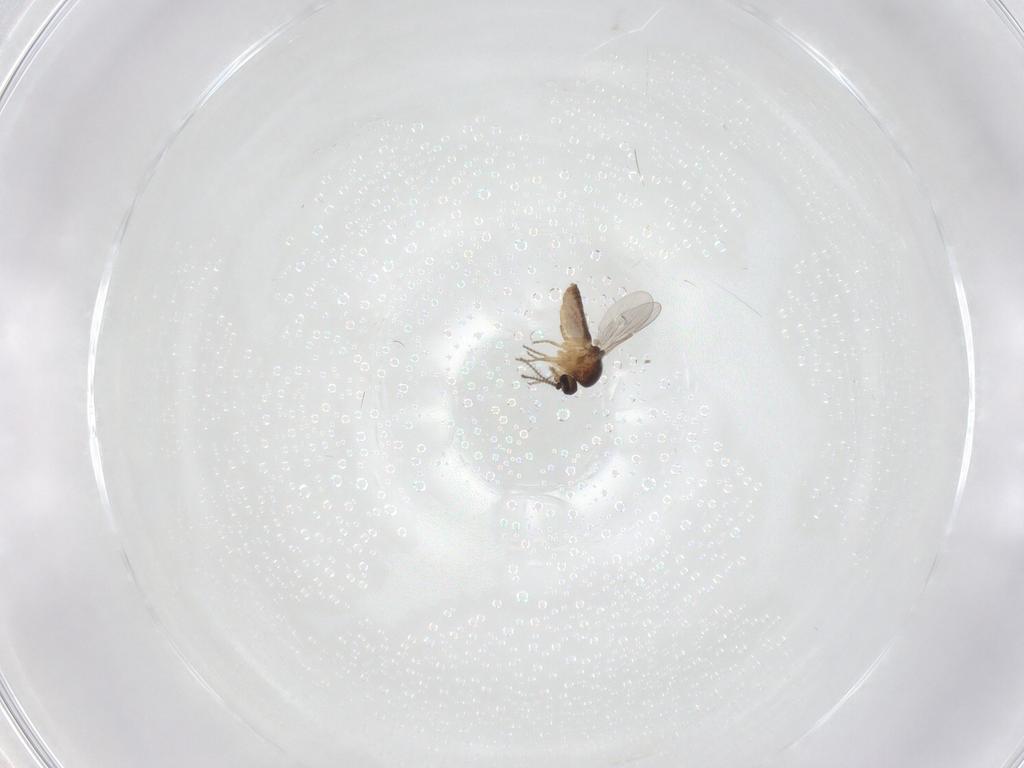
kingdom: Animalia
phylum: Arthropoda
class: Insecta
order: Diptera
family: Ceratopogonidae
